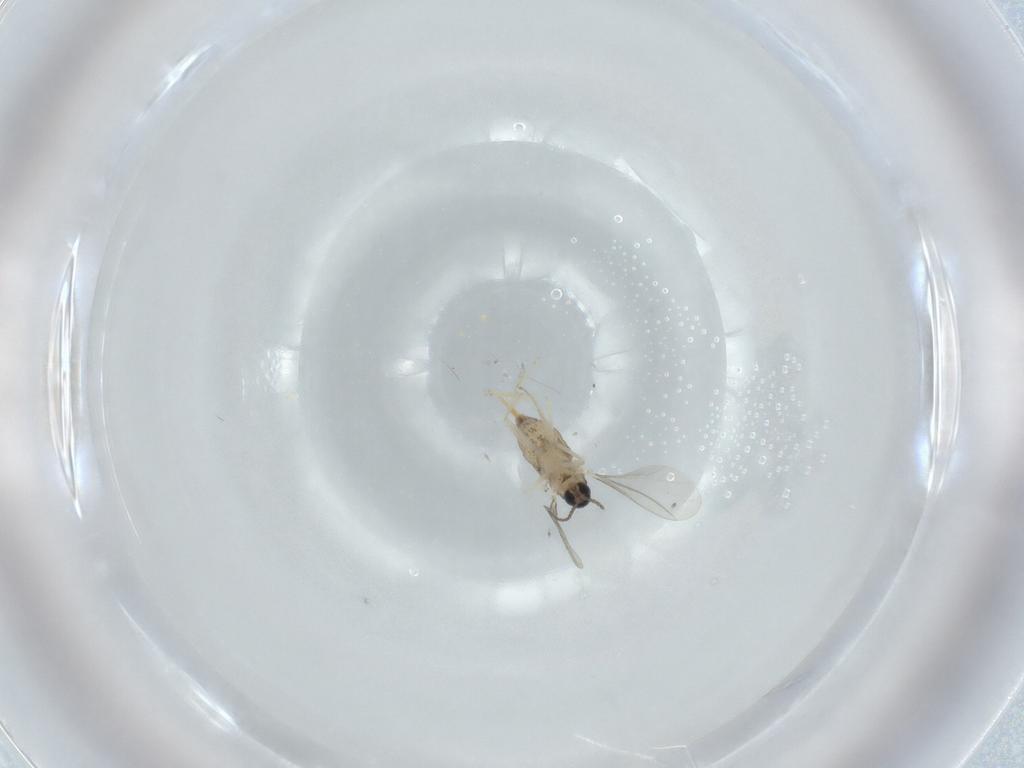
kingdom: Animalia
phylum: Arthropoda
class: Insecta
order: Diptera
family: Cecidomyiidae
